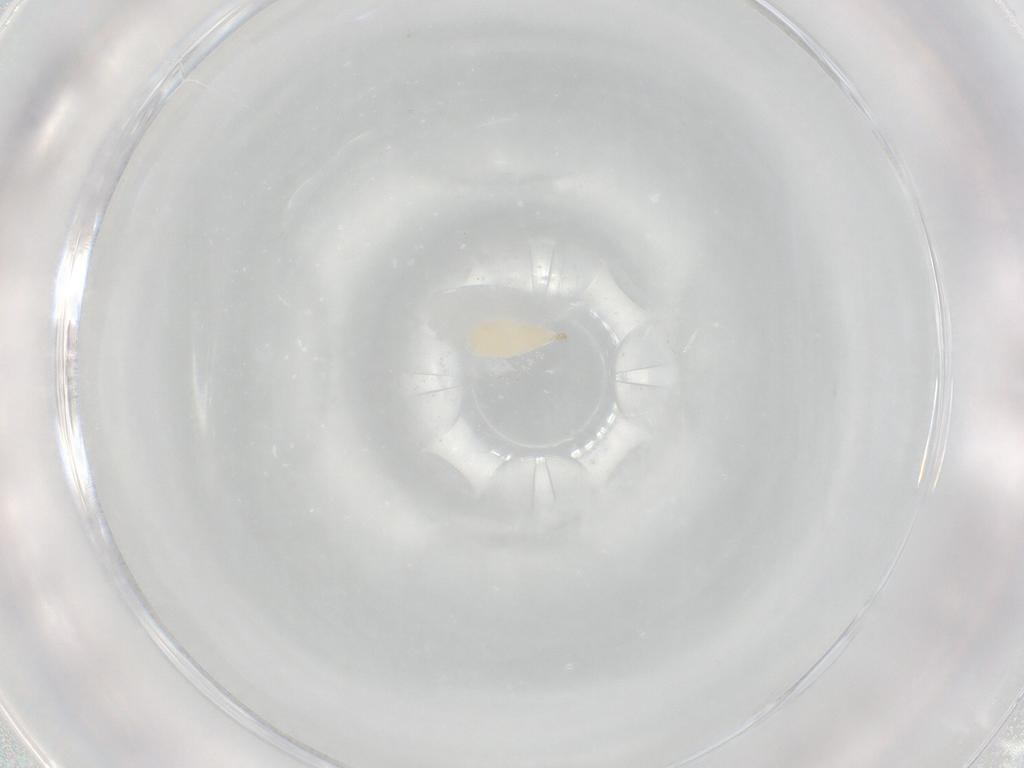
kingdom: Animalia
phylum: Arthropoda
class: Insecta
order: Hymenoptera
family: Ichneumonidae
